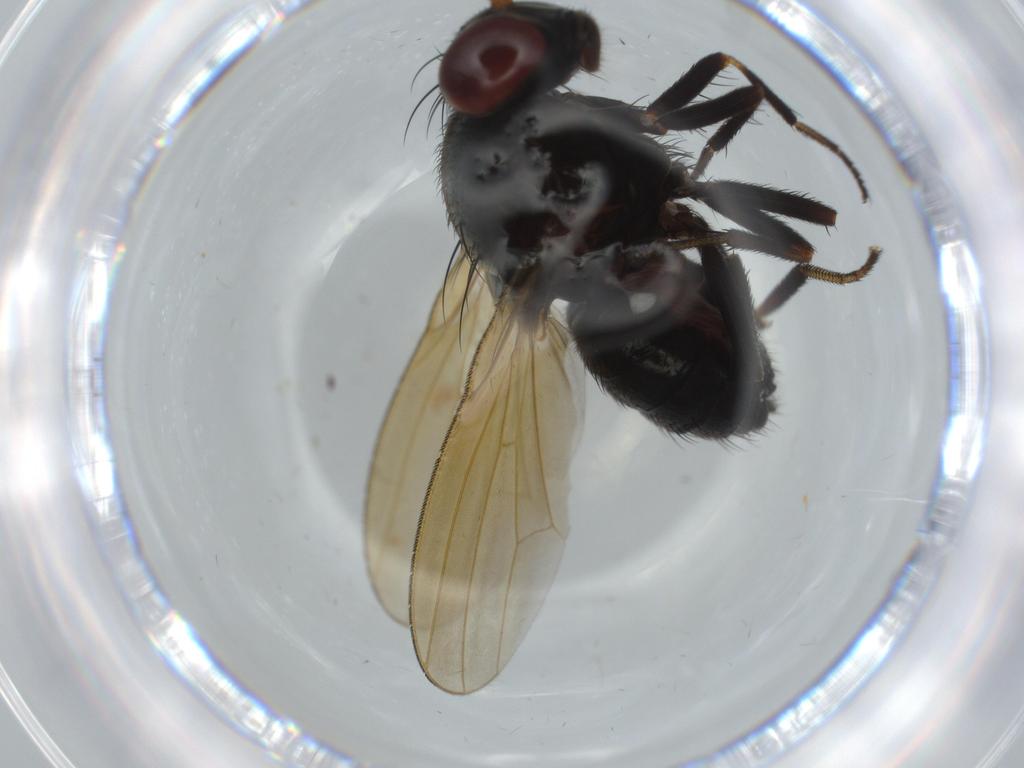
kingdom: Animalia
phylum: Arthropoda
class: Insecta
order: Diptera
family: Lauxaniidae
